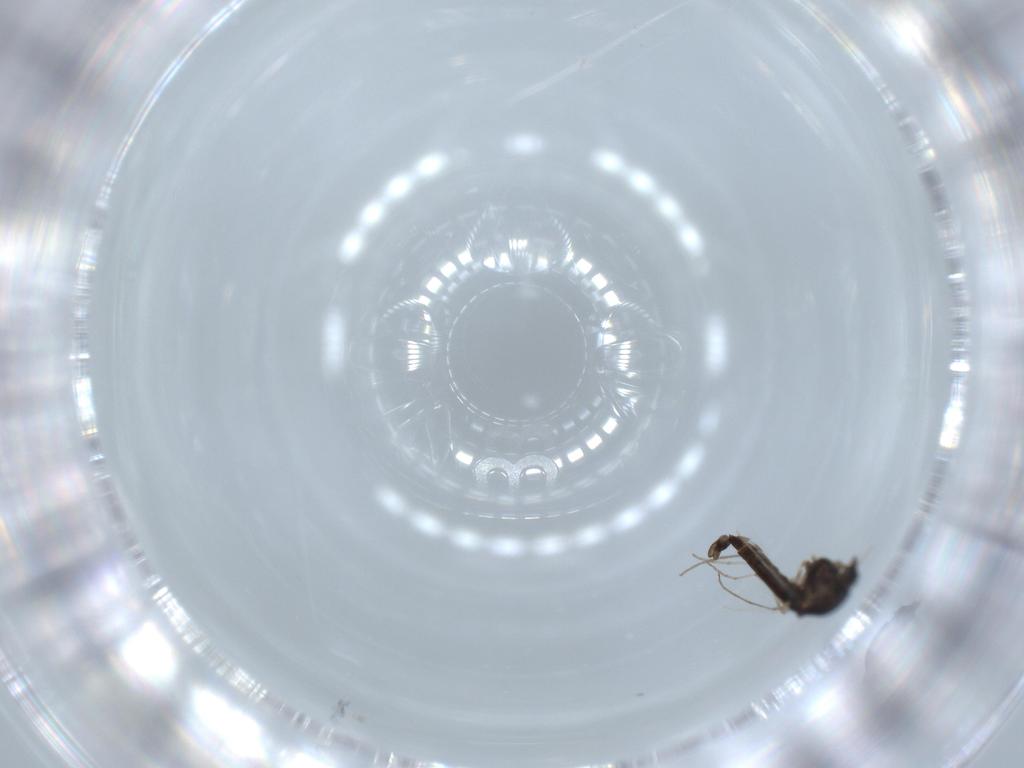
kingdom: Animalia
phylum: Arthropoda
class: Insecta
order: Diptera
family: Chironomidae
